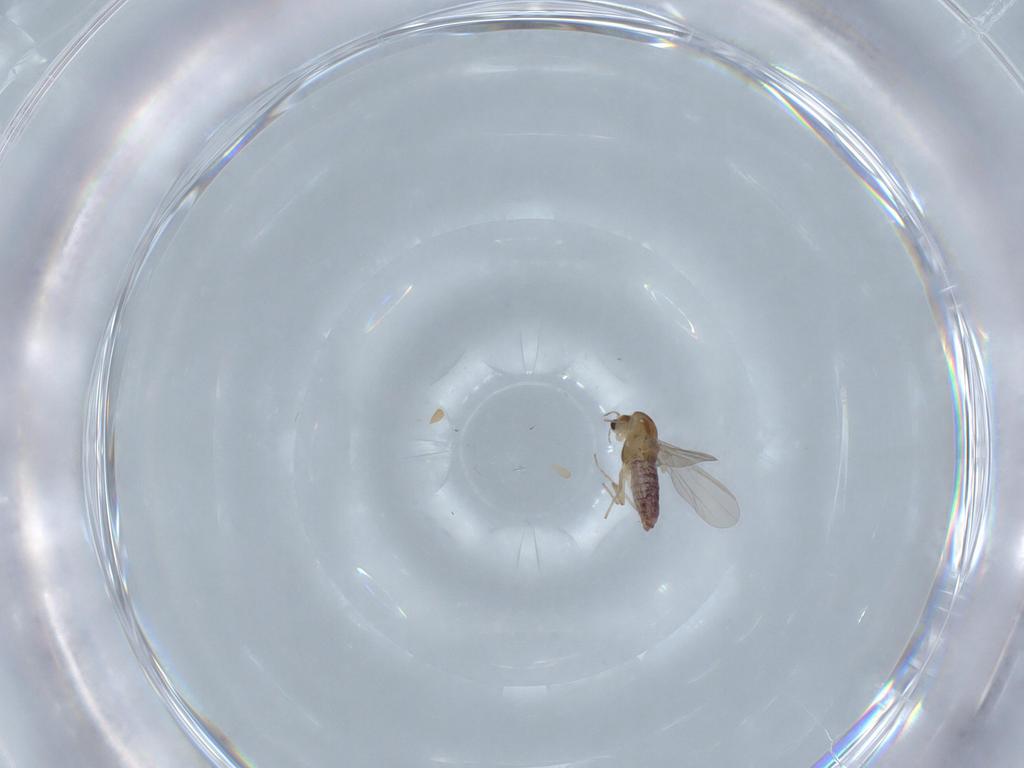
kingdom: Animalia
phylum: Arthropoda
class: Insecta
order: Diptera
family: Chironomidae
